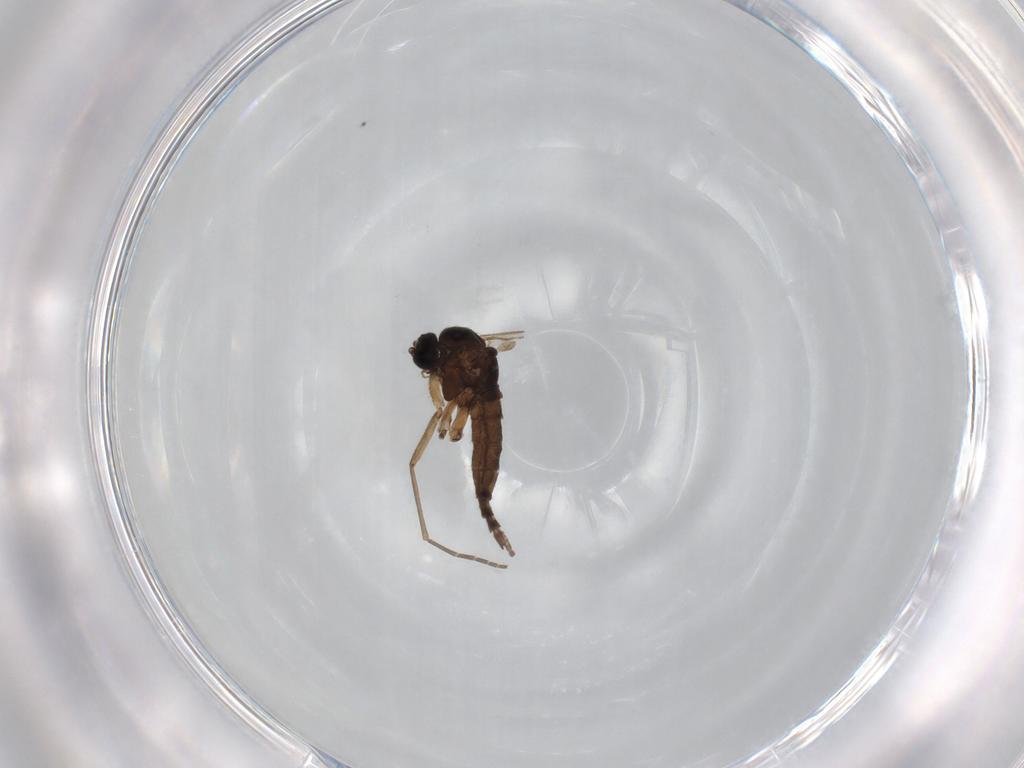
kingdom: Animalia
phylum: Arthropoda
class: Insecta
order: Diptera
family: Sciaridae
